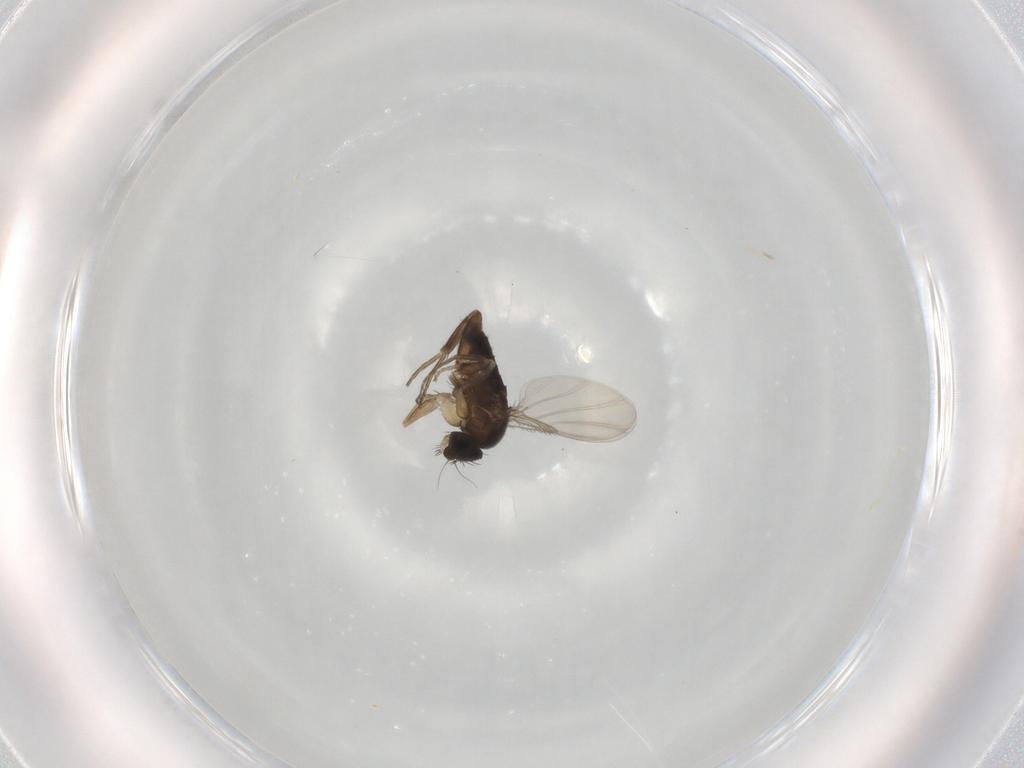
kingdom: Animalia
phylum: Arthropoda
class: Insecta
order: Diptera
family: Phoridae
